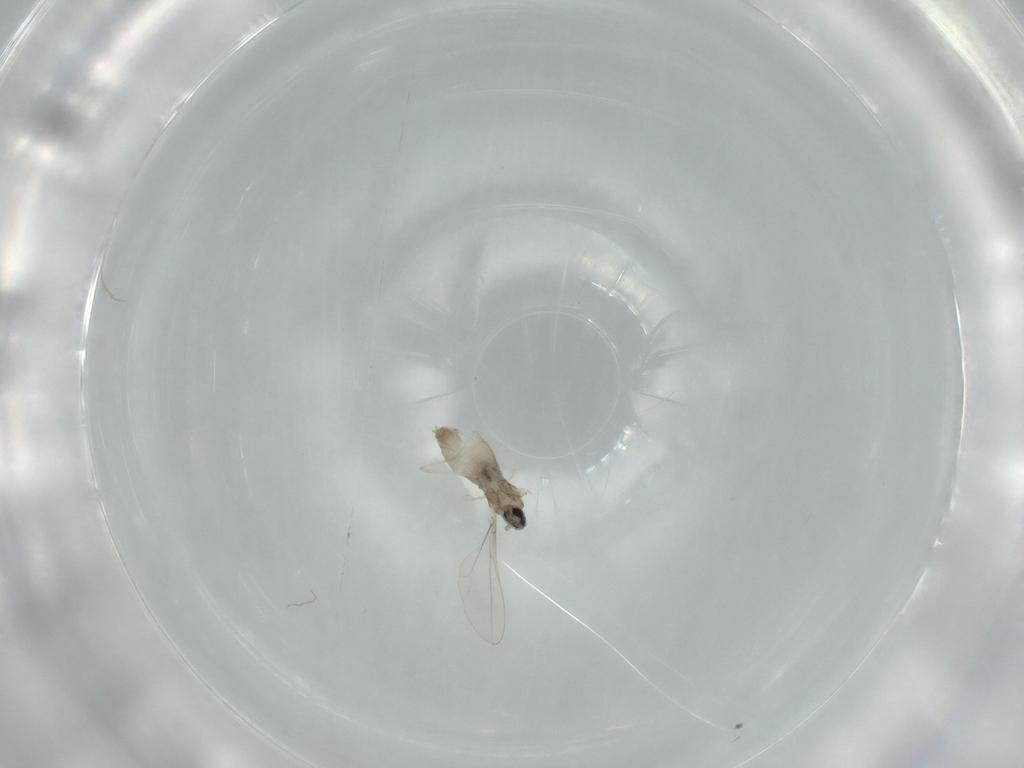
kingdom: Animalia
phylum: Arthropoda
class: Insecta
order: Diptera
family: Cecidomyiidae
